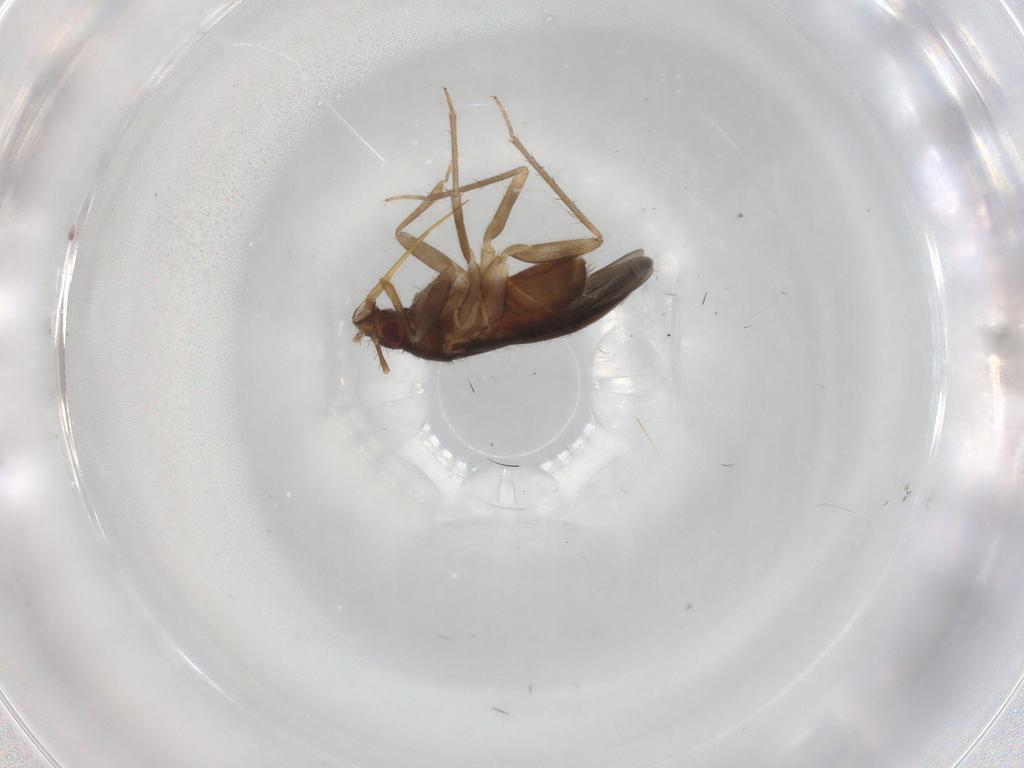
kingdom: Animalia
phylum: Arthropoda
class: Insecta
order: Hemiptera
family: Ceratocombidae
